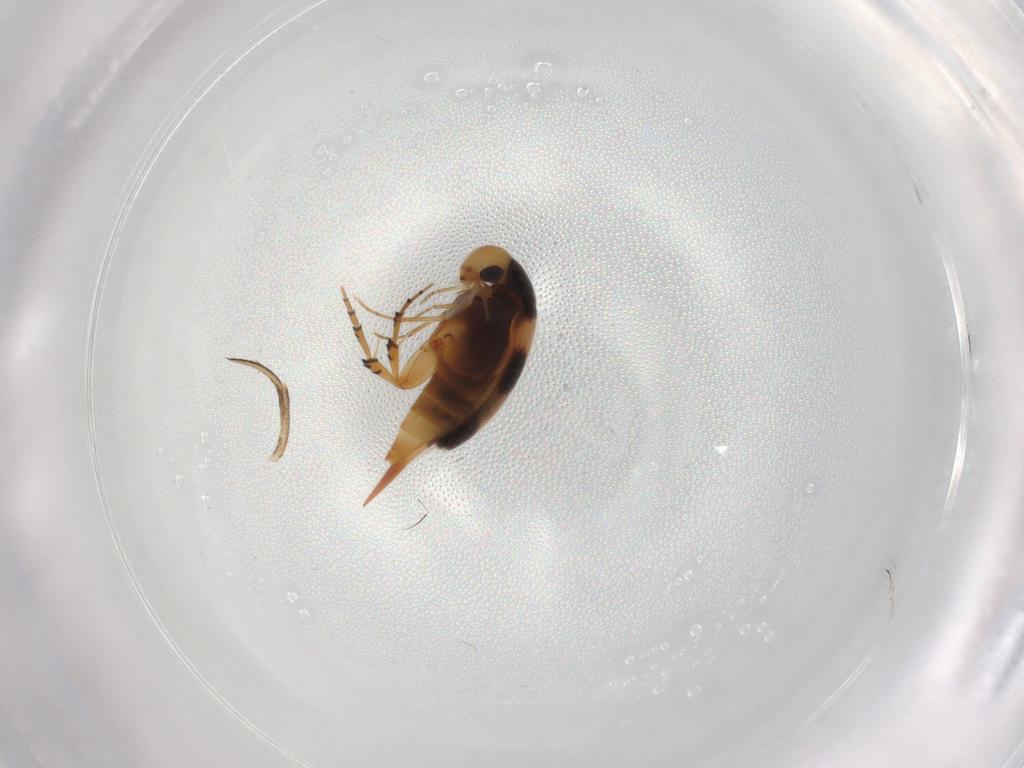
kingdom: Animalia
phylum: Arthropoda
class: Insecta
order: Coleoptera
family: Mordellidae
